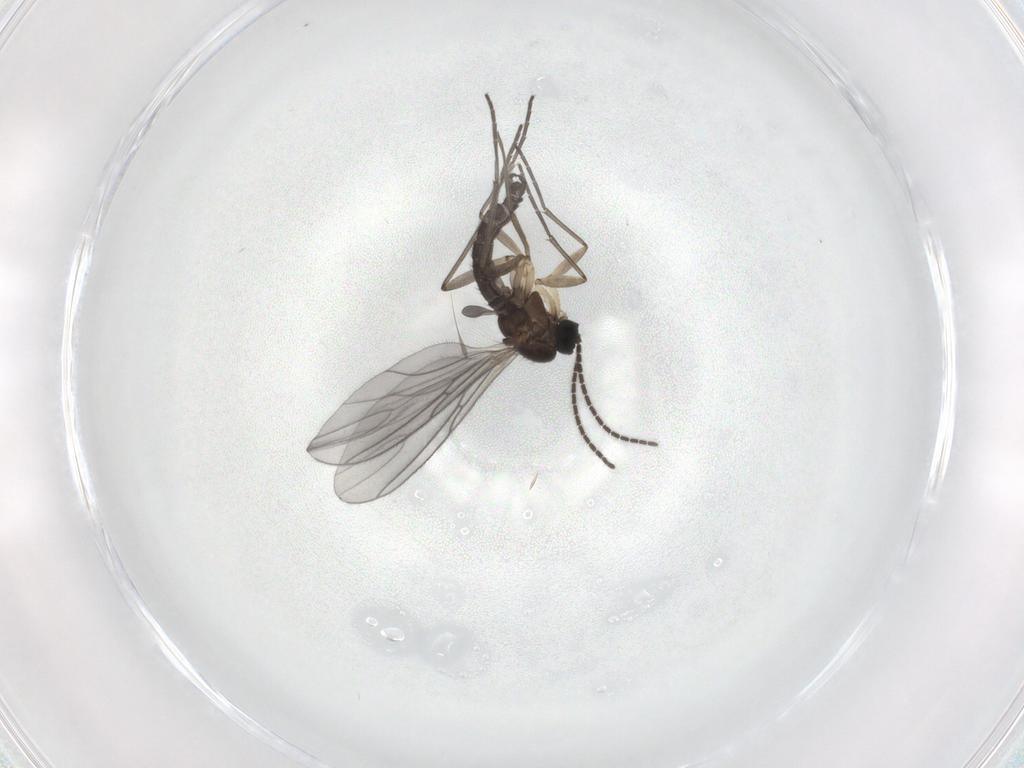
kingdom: Animalia
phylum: Arthropoda
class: Insecta
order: Diptera
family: Sciaridae
